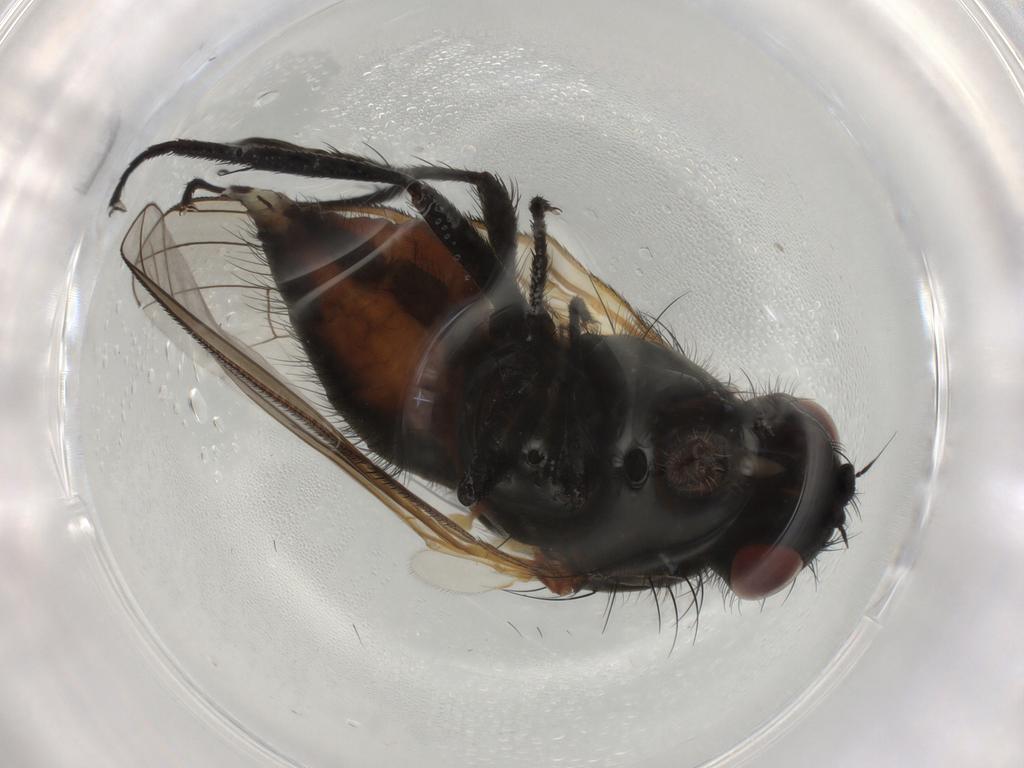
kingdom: Animalia
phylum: Arthropoda
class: Insecta
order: Diptera
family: Anthomyiidae
